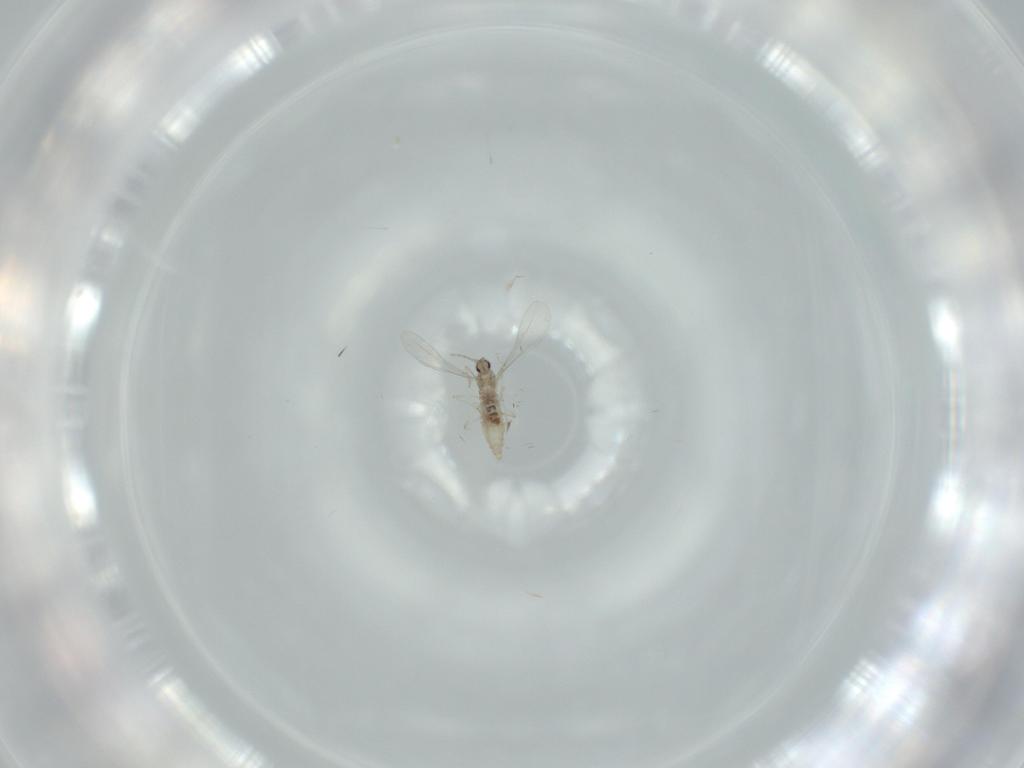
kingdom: Animalia
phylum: Arthropoda
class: Insecta
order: Diptera
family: Cecidomyiidae
